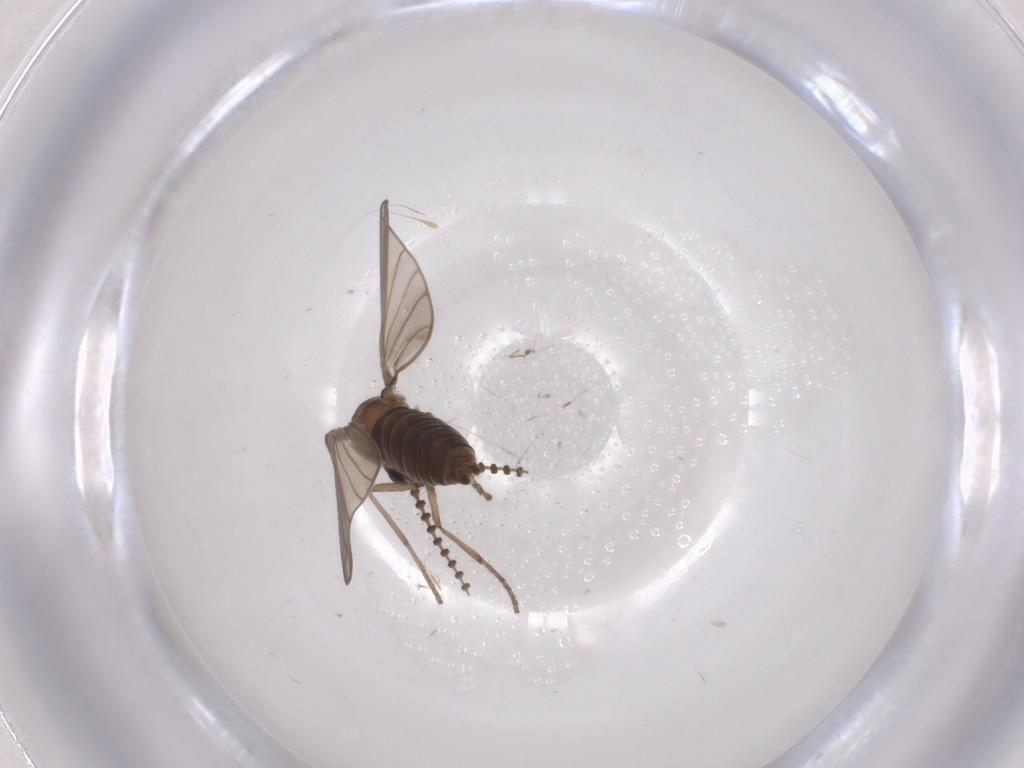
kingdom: Animalia
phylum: Arthropoda
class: Insecta
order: Diptera
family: Psychodidae
